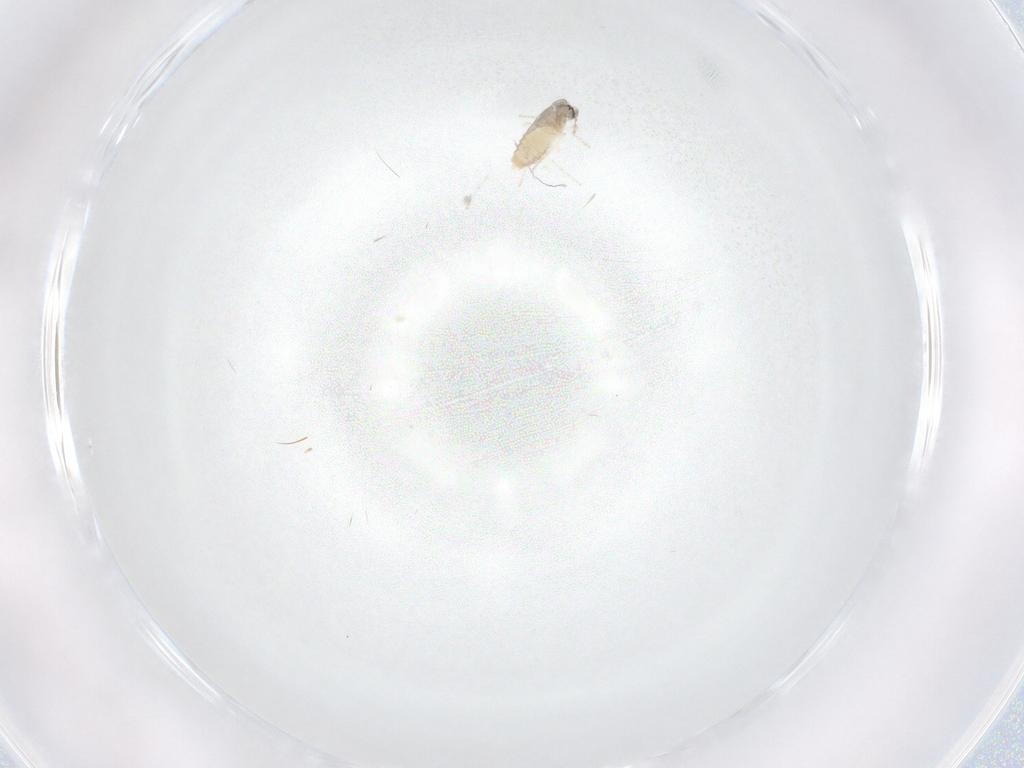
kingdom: Animalia
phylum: Arthropoda
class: Insecta
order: Diptera
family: Cecidomyiidae
